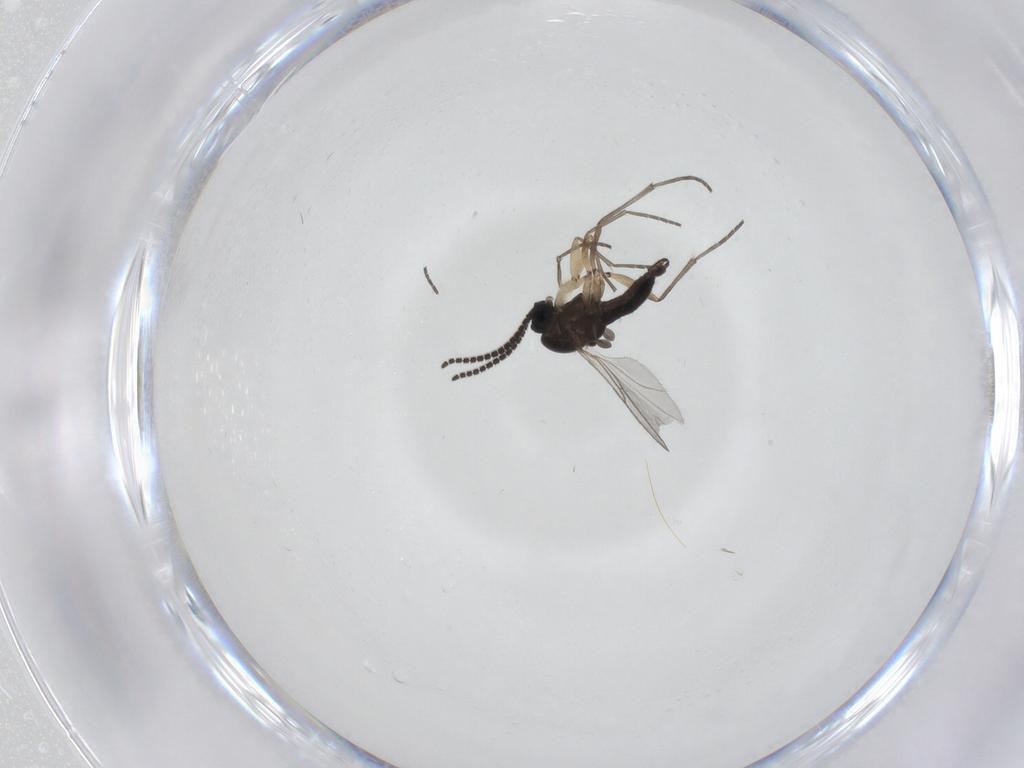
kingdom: Animalia
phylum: Arthropoda
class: Insecta
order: Diptera
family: Sciaridae
